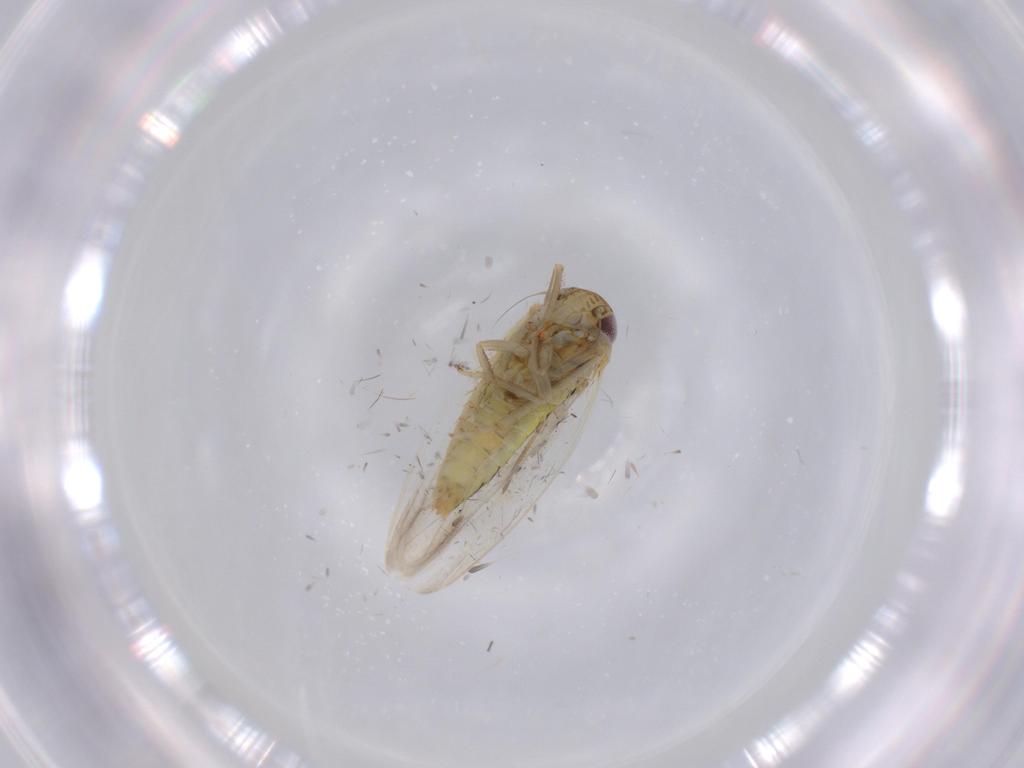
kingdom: Animalia
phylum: Arthropoda
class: Insecta
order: Hemiptera
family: Cicadellidae
